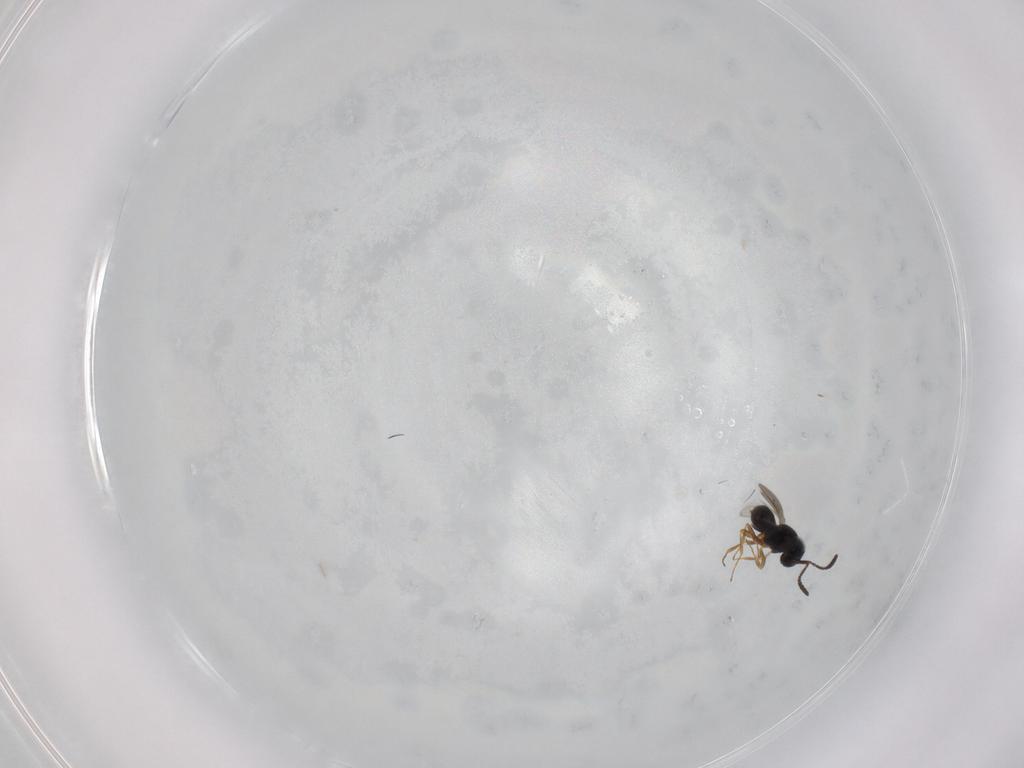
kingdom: Animalia
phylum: Arthropoda
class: Insecta
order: Hymenoptera
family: Scelionidae
